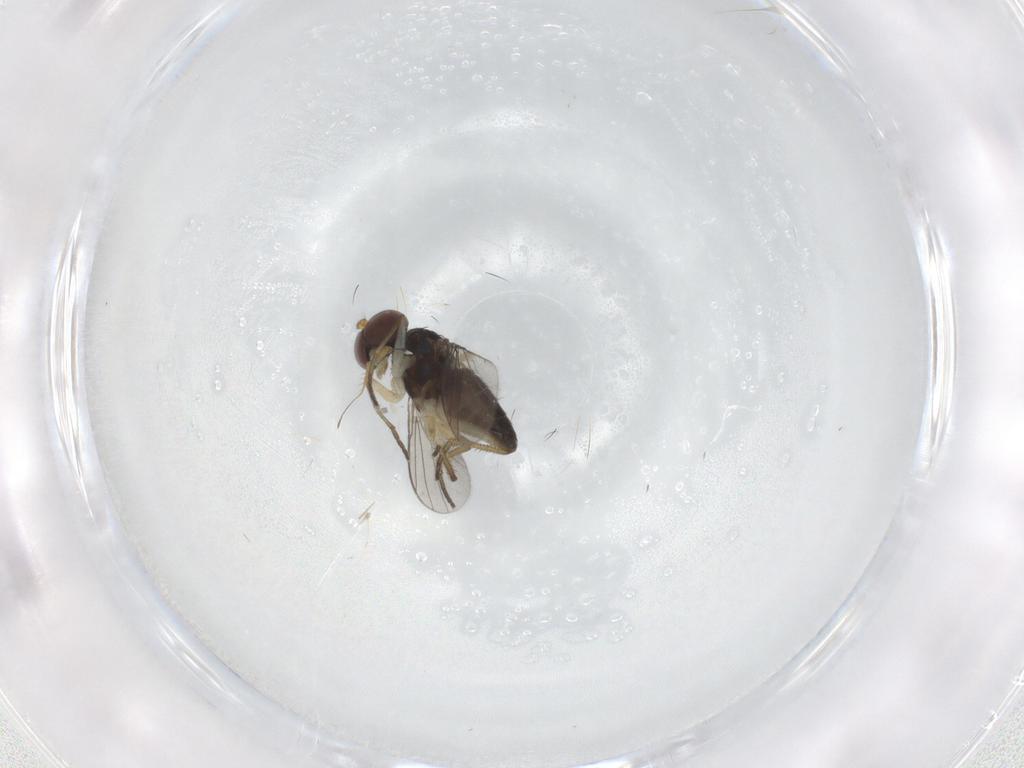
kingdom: Animalia
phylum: Arthropoda
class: Insecta
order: Diptera
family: Dolichopodidae
